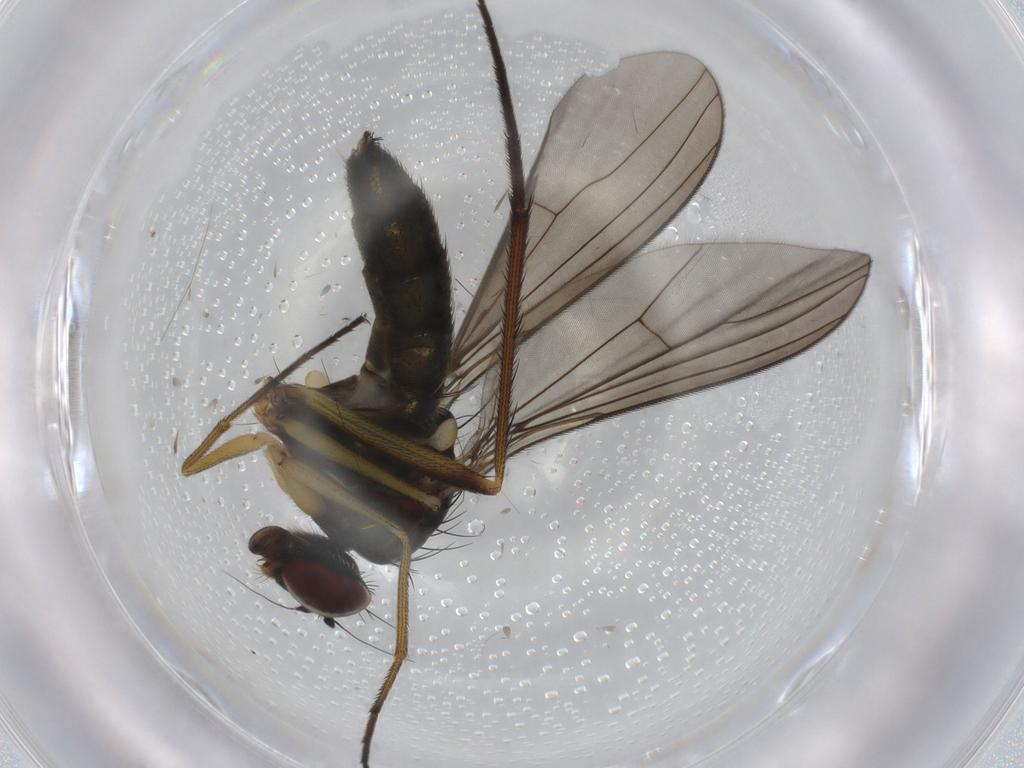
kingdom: Animalia
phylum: Arthropoda
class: Insecta
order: Diptera
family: Dolichopodidae
